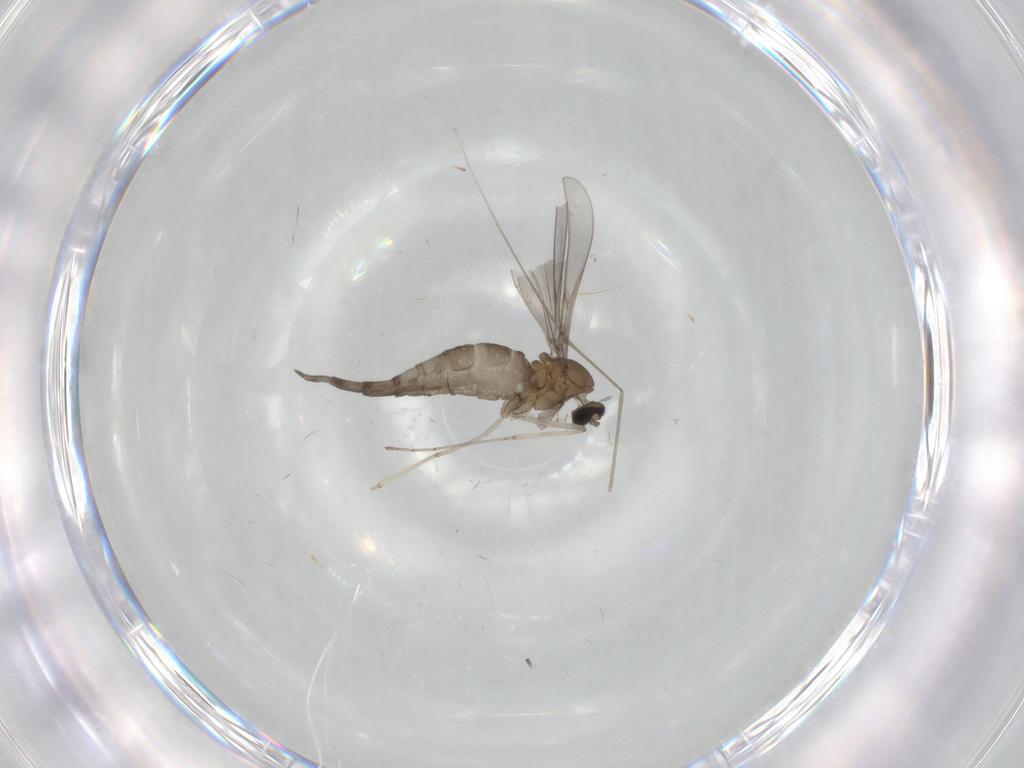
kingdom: Animalia
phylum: Arthropoda
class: Insecta
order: Diptera
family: Cecidomyiidae
